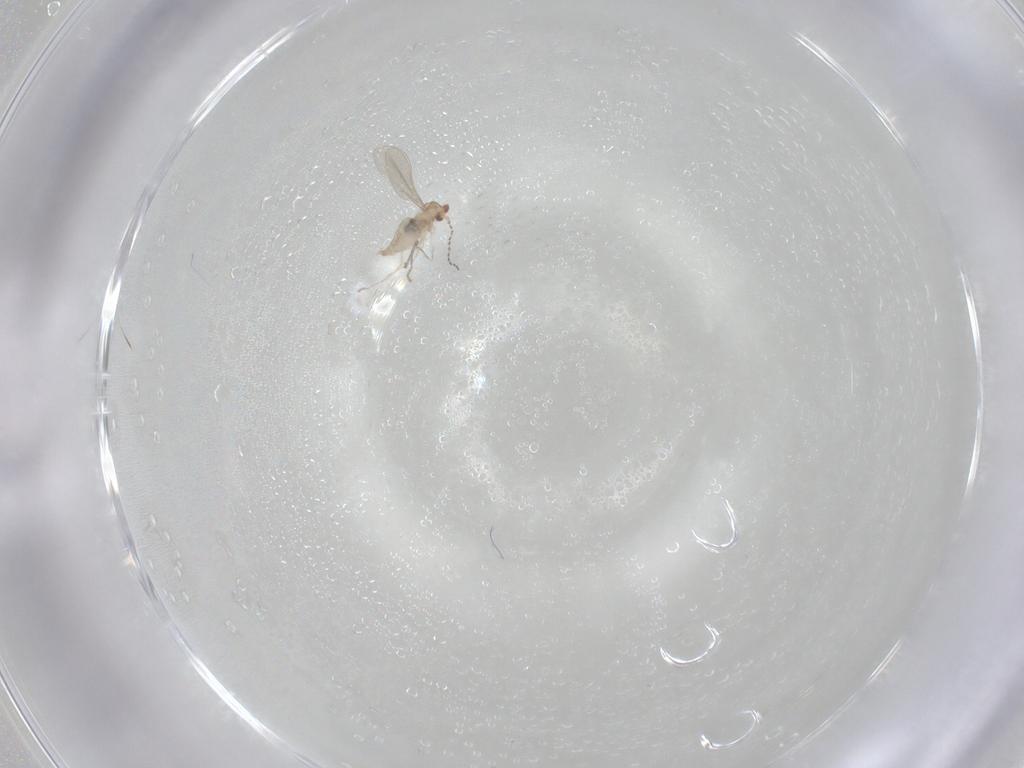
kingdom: Animalia
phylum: Arthropoda
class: Insecta
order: Diptera
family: Cecidomyiidae
